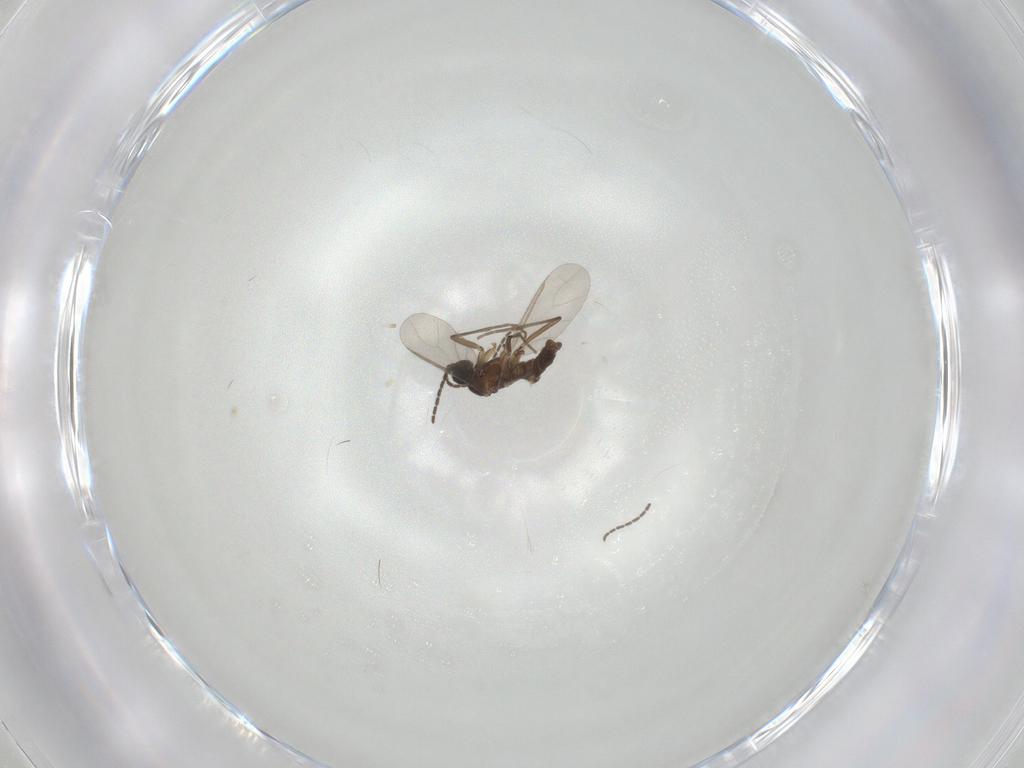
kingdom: Animalia
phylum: Arthropoda
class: Insecta
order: Diptera
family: Sciaridae
